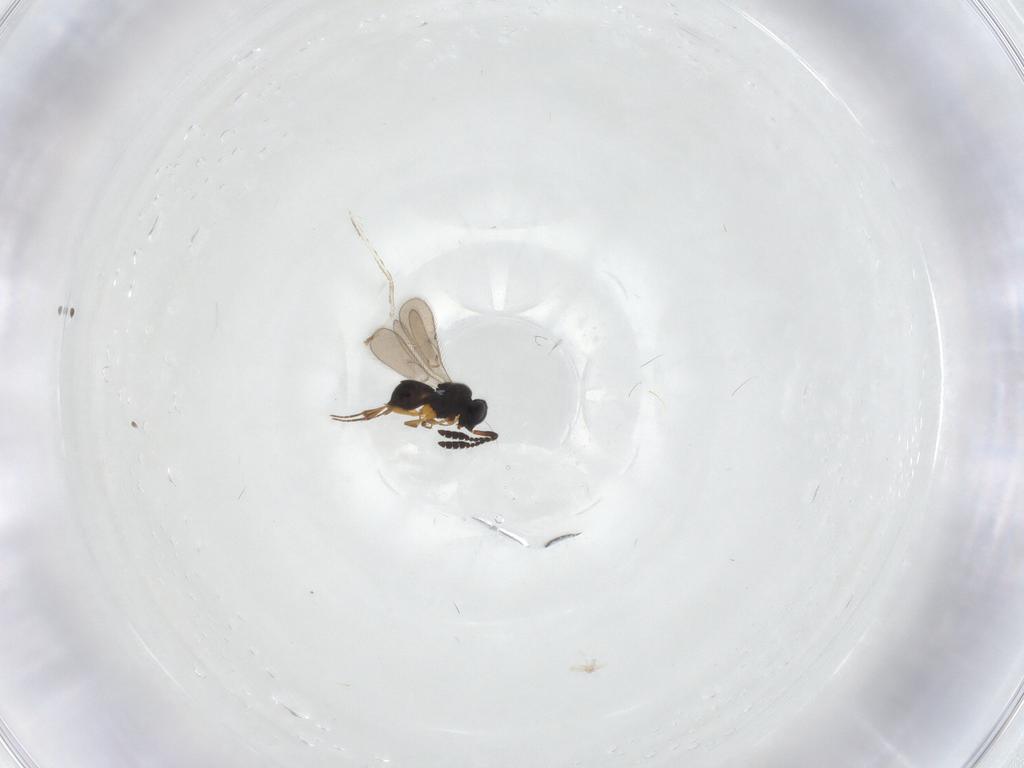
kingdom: Animalia
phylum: Arthropoda
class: Insecta
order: Hymenoptera
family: Scelionidae
